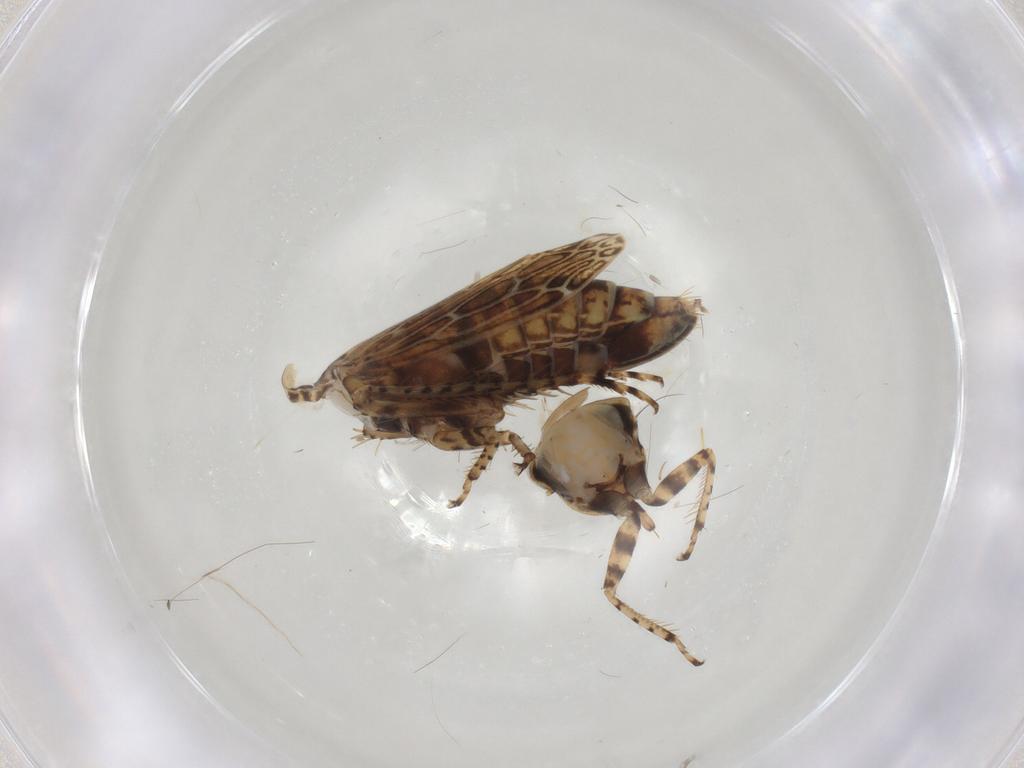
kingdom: Animalia
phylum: Arthropoda
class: Insecta
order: Hemiptera
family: Cicadellidae
